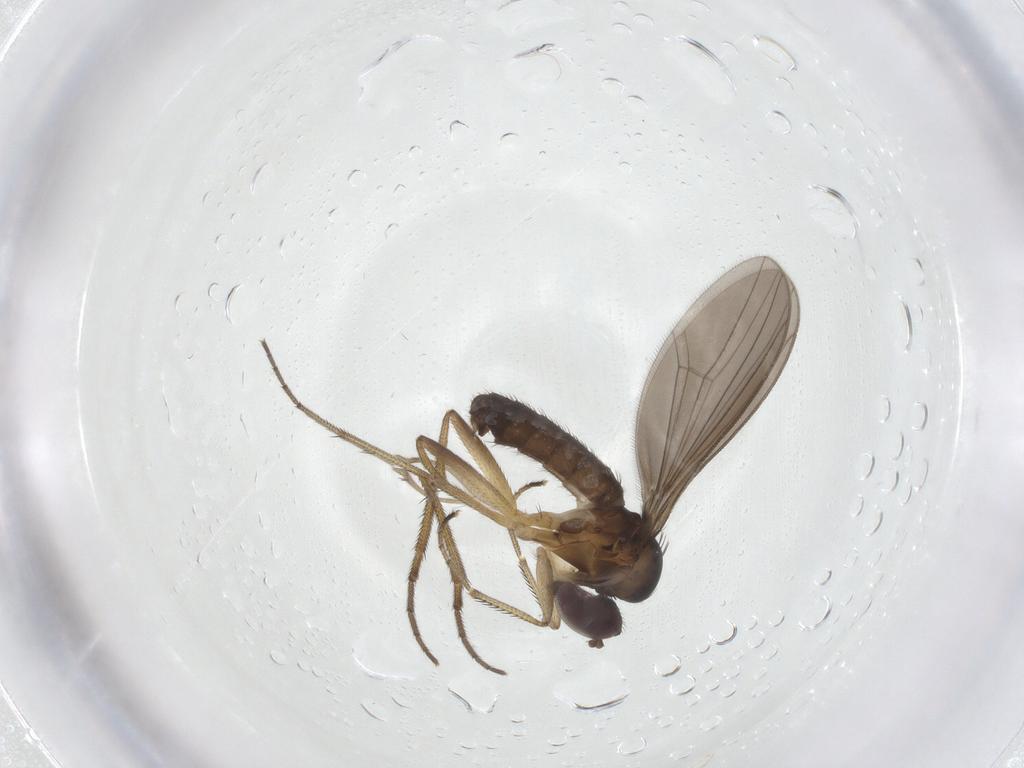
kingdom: Animalia
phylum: Arthropoda
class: Insecta
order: Diptera
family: Dolichopodidae
